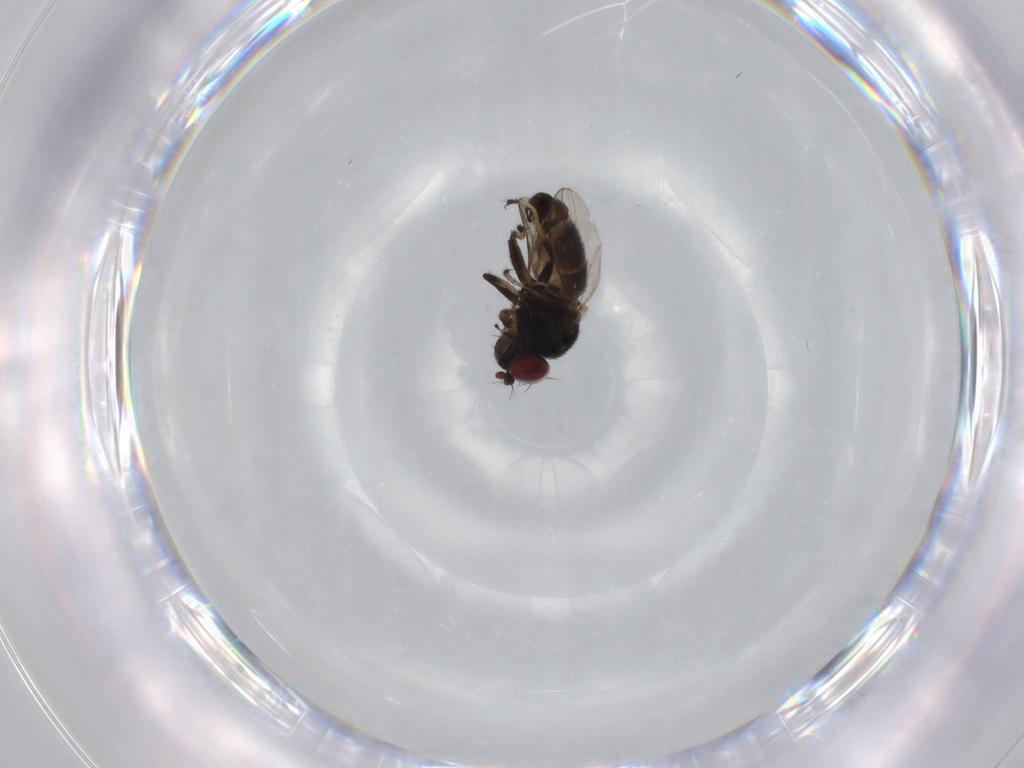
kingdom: Animalia
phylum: Arthropoda
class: Insecta
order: Diptera
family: Ephydridae
